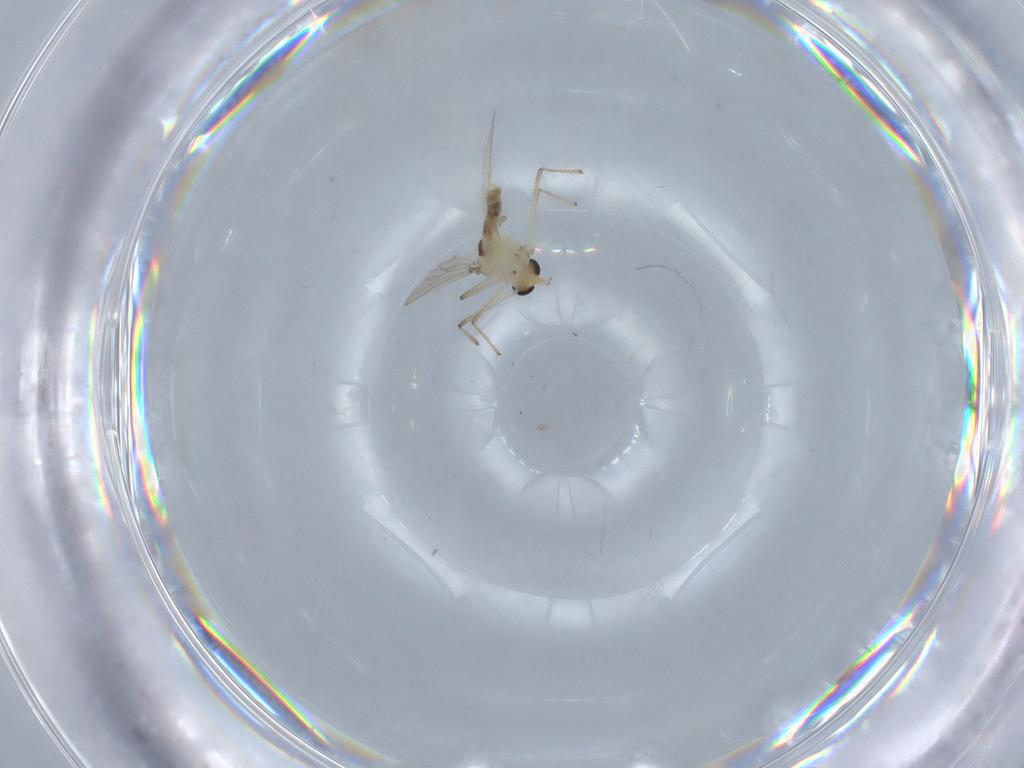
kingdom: Animalia
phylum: Arthropoda
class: Insecta
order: Diptera
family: Chironomidae
